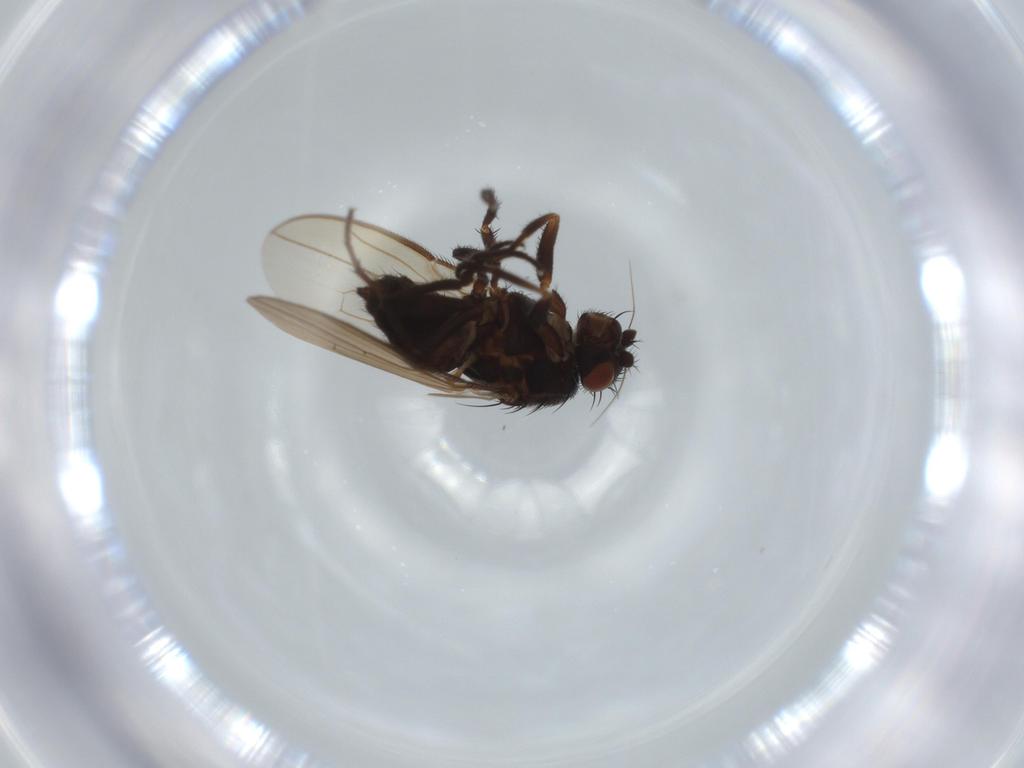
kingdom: Animalia
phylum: Arthropoda
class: Insecta
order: Diptera
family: Sphaeroceridae
